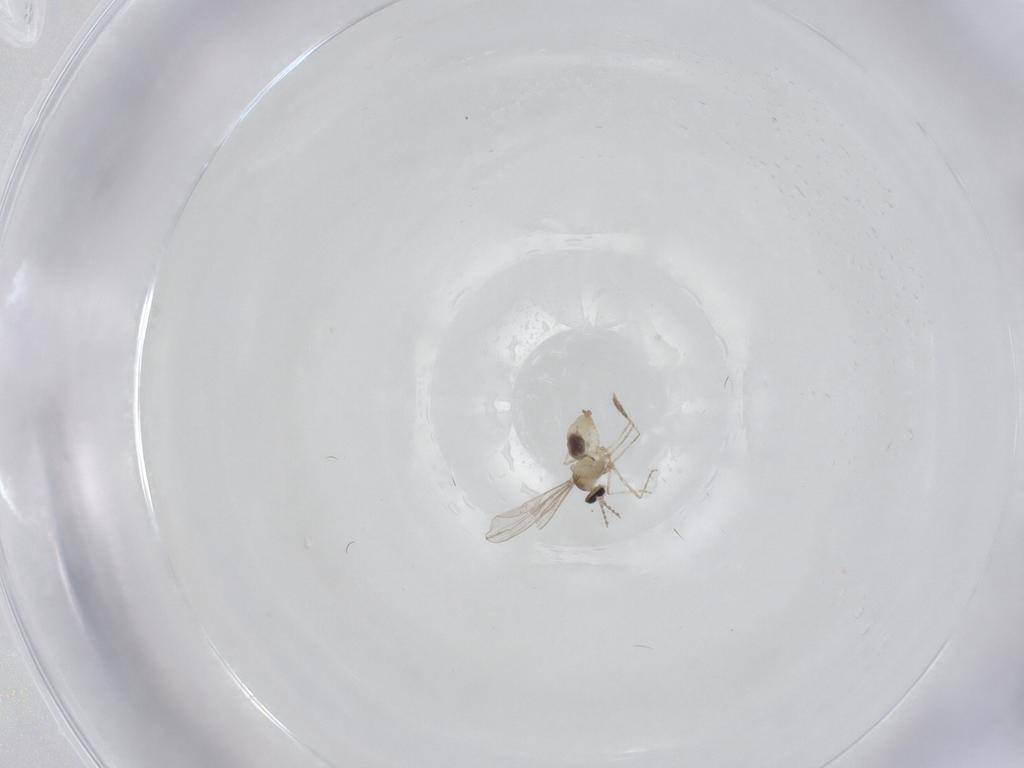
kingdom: Animalia
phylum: Arthropoda
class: Insecta
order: Diptera
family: Cecidomyiidae
